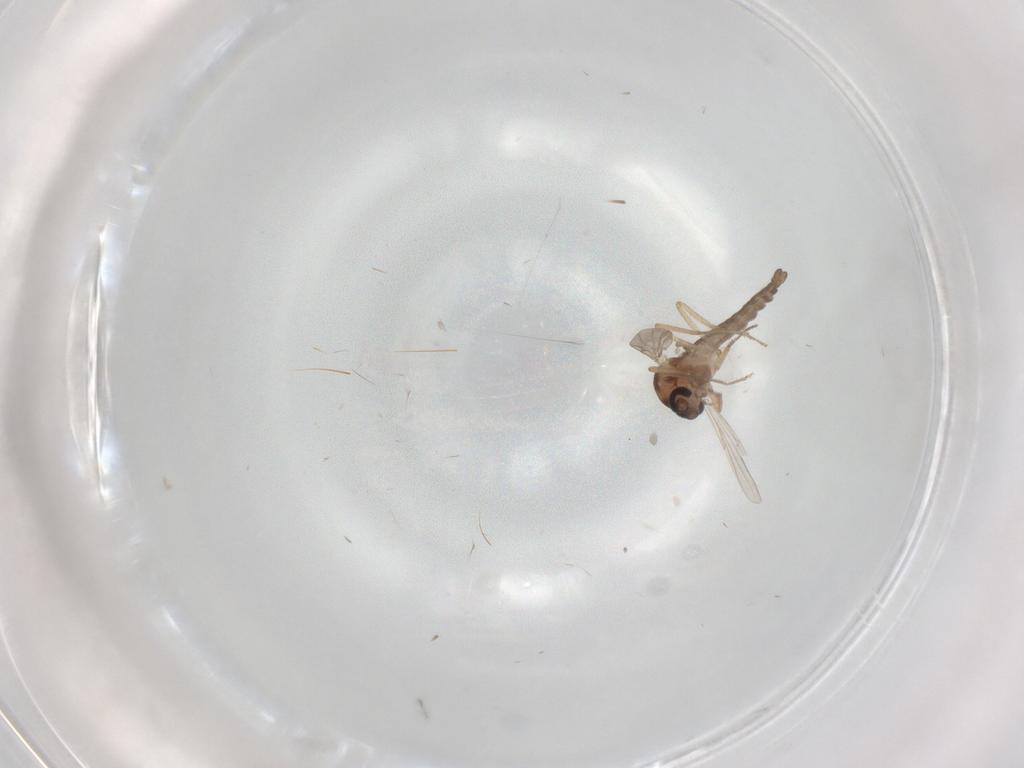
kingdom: Animalia
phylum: Arthropoda
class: Insecta
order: Diptera
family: Ceratopogonidae
